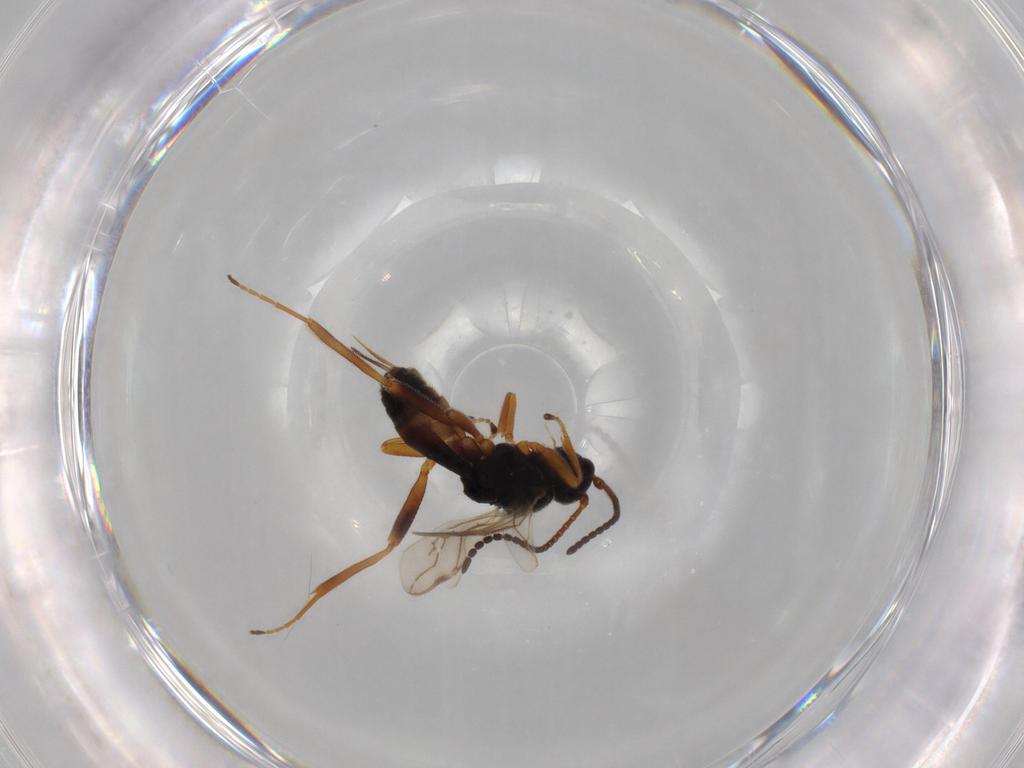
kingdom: Animalia
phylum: Arthropoda
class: Insecta
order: Hymenoptera
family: Braconidae
